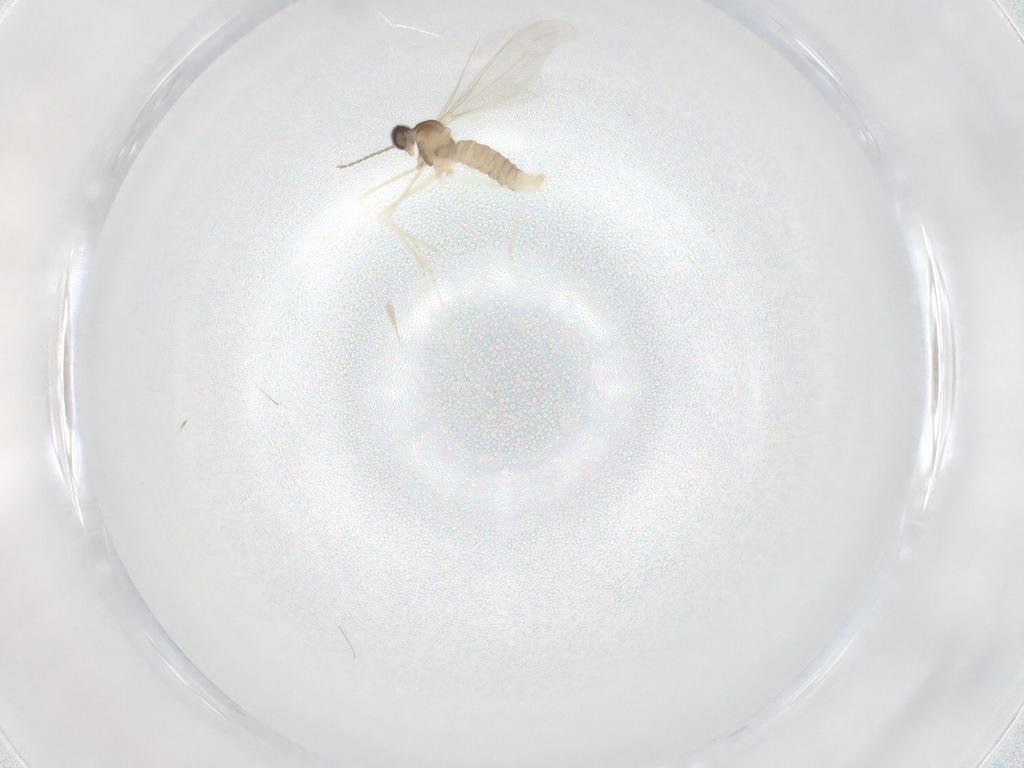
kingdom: Animalia
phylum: Arthropoda
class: Insecta
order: Diptera
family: Cecidomyiidae
